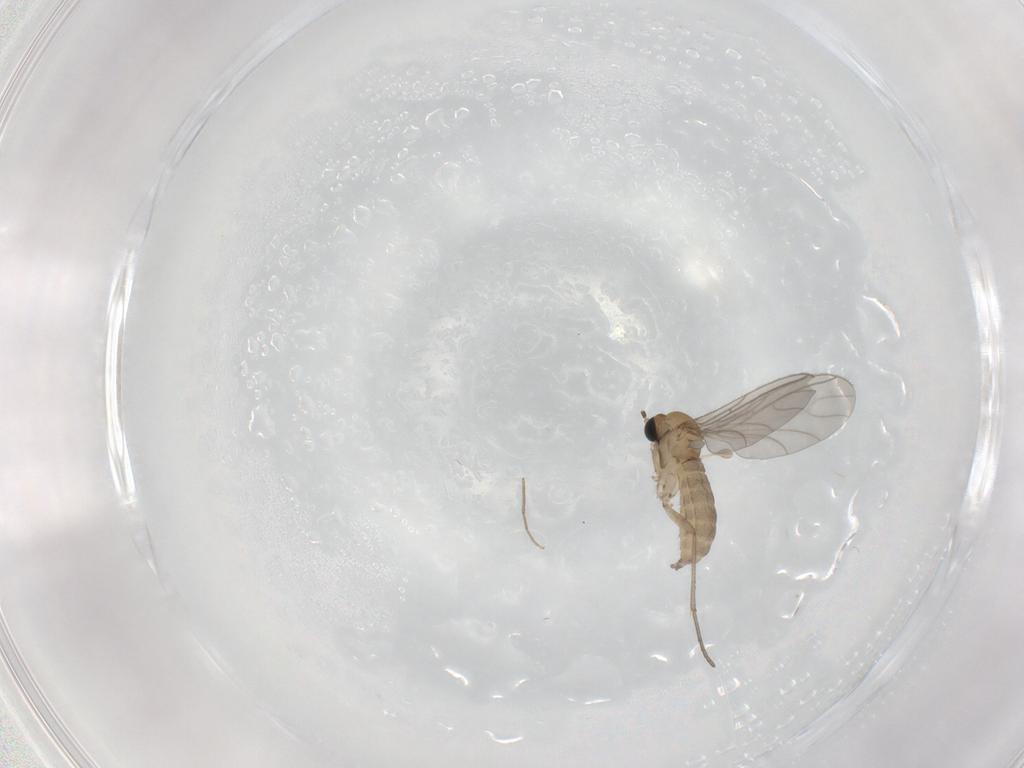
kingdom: Animalia
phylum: Arthropoda
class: Insecta
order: Diptera
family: Sciaridae
